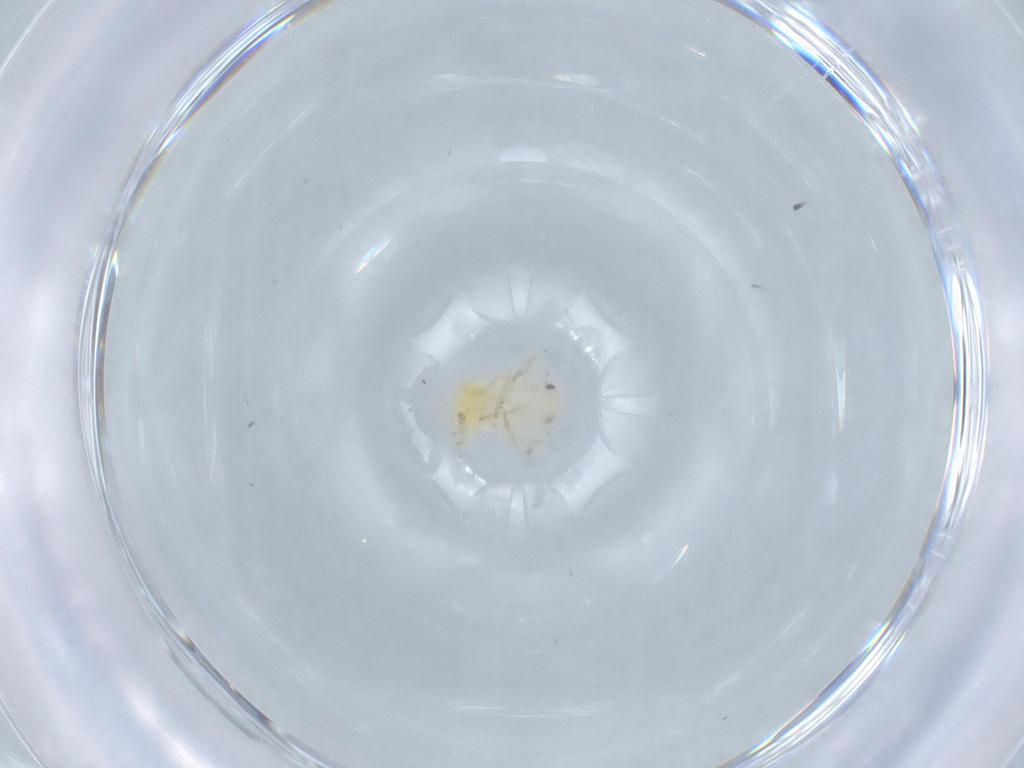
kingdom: Animalia
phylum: Arthropoda
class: Insecta
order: Hemiptera
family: Flatidae
